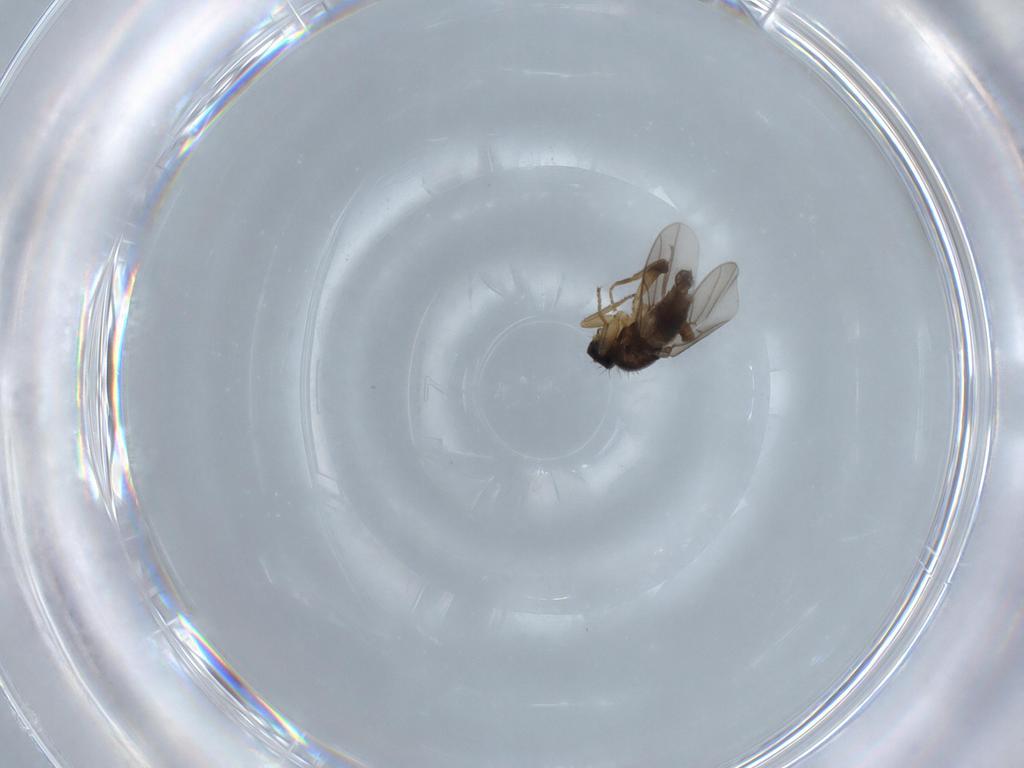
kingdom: Animalia
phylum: Arthropoda
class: Insecta
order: Diptera
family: Hybotidae
